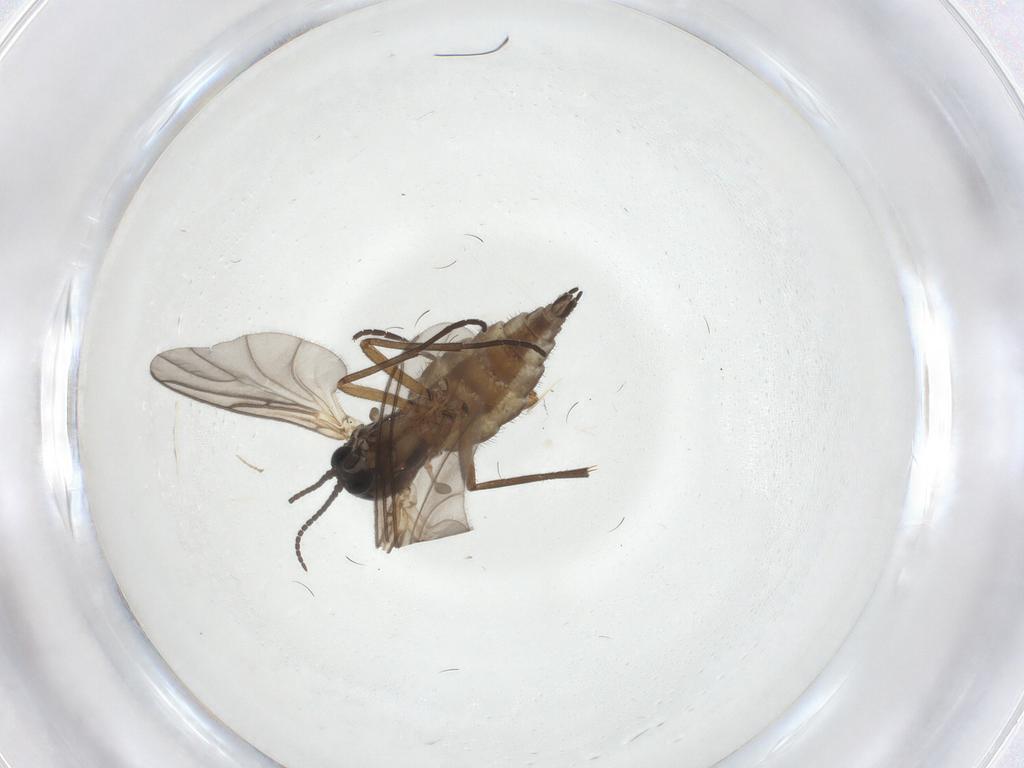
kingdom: Animalia
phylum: Arthropoda
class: Insecta
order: Diptera
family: Sciaridae
